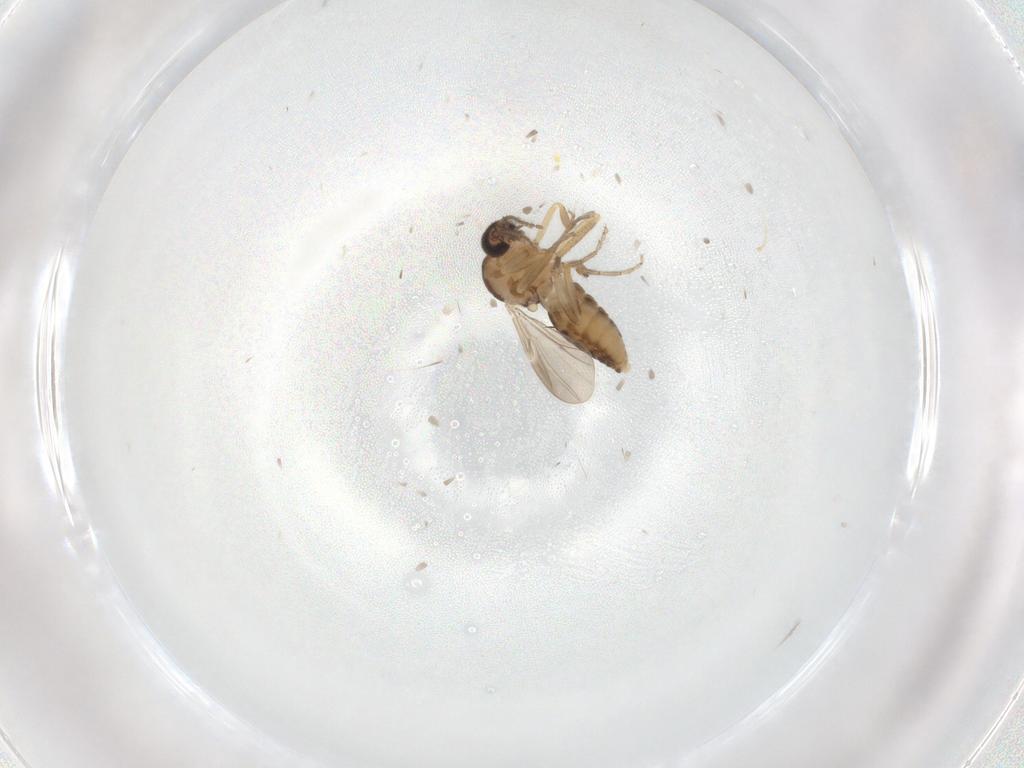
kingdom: Animalia
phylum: Arthropoda
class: Insecta
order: Diptera
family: Ceratopogonidae
